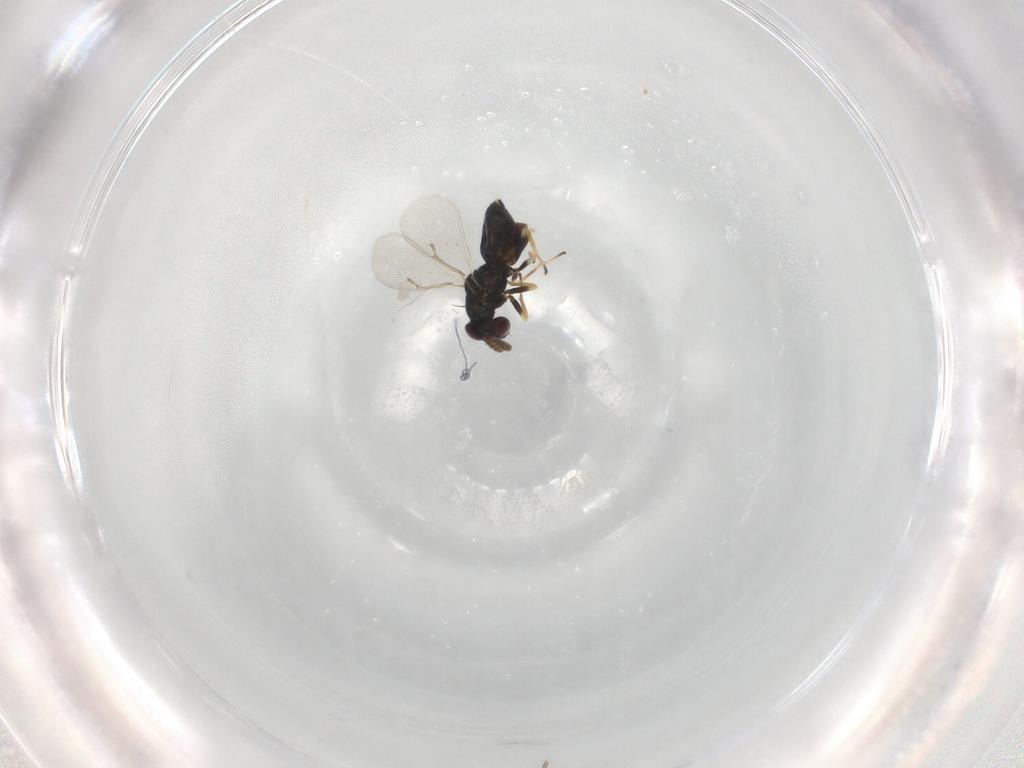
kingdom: Animalia
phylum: Arthropoda
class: Insecta
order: Hymenoptera
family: Eulophidae
